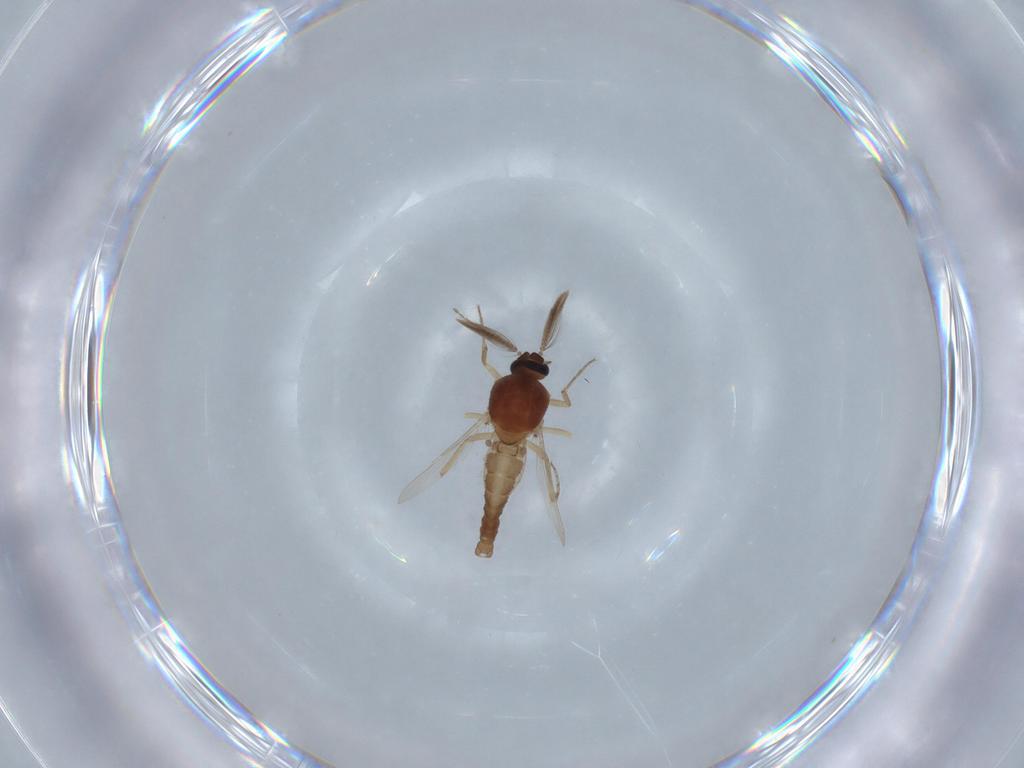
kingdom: Animalia
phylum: Arthropoda
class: Insecta
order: Diptera
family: Ceratopogonidae
